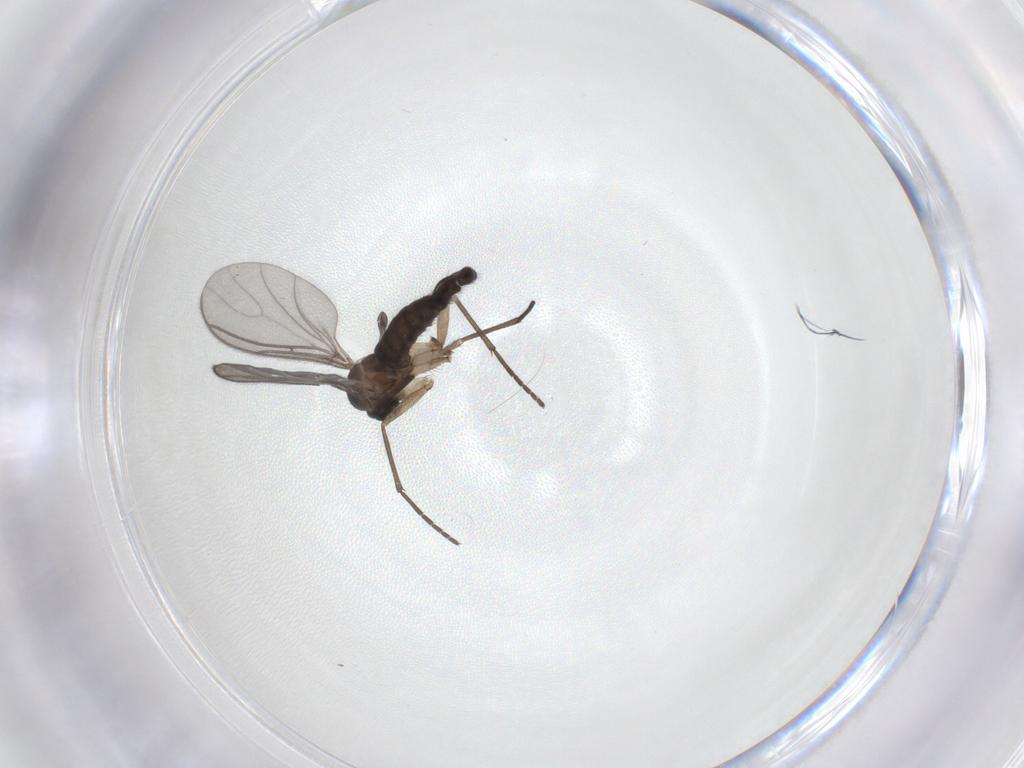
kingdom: Animalia
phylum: Arthropoda
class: Insecta
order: Diptera
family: Sciaridae
